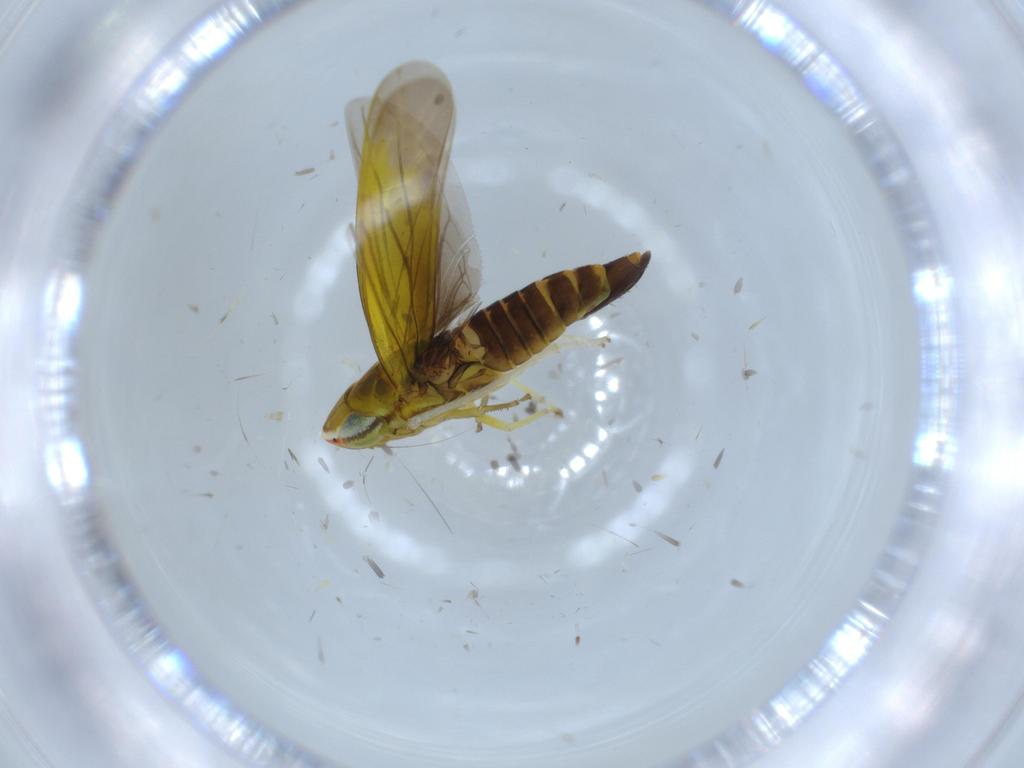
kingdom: Animalia
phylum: Arthropoda
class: Insecta
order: Hemiptera
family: Cicadellidae
